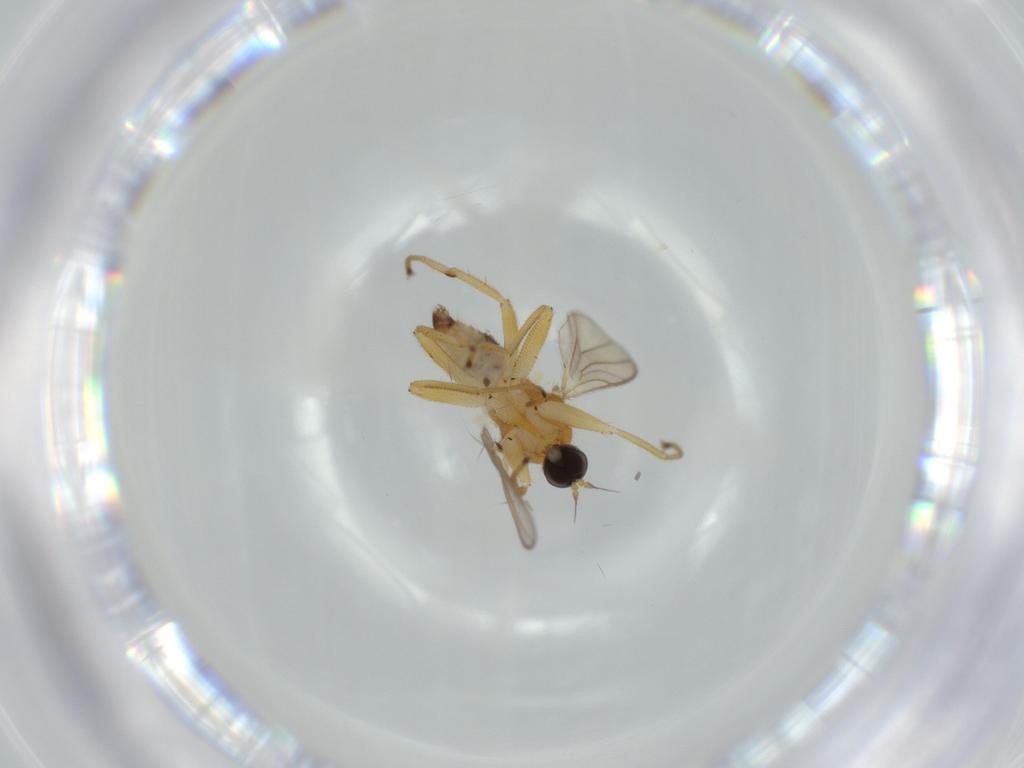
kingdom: Animalia
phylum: Arthropoda
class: Insecta
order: Diptera
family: Hybotidae
